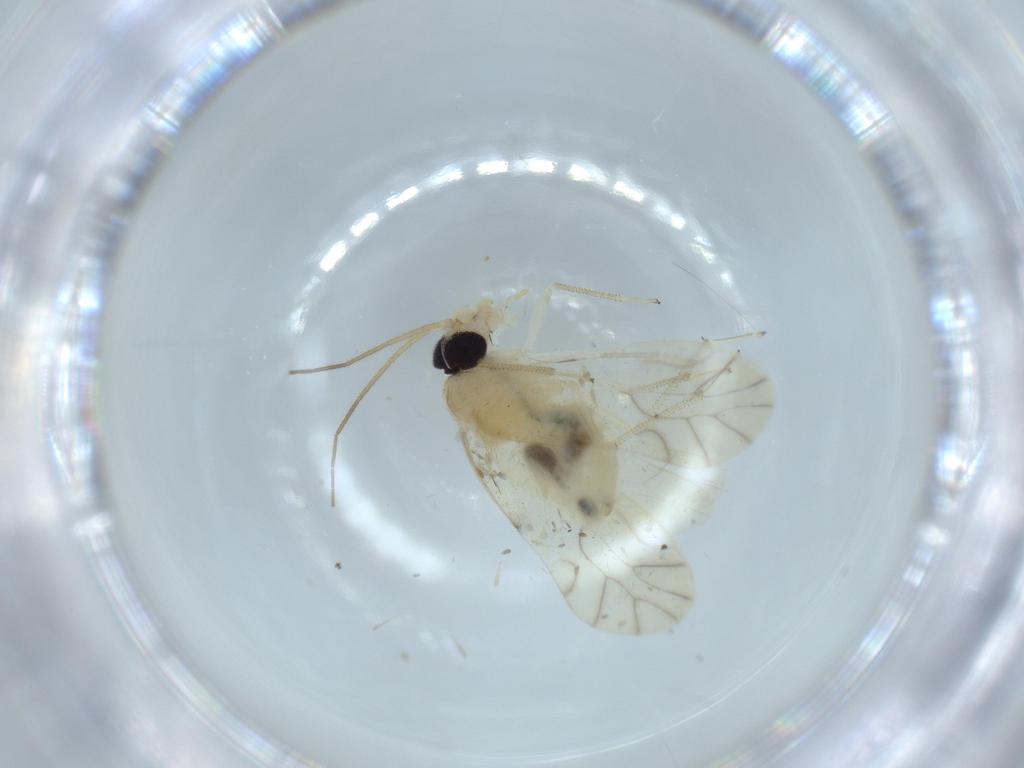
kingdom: Animalia
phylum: Arthropoda
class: Insecta
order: Psocodea
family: Caeciliusidae
